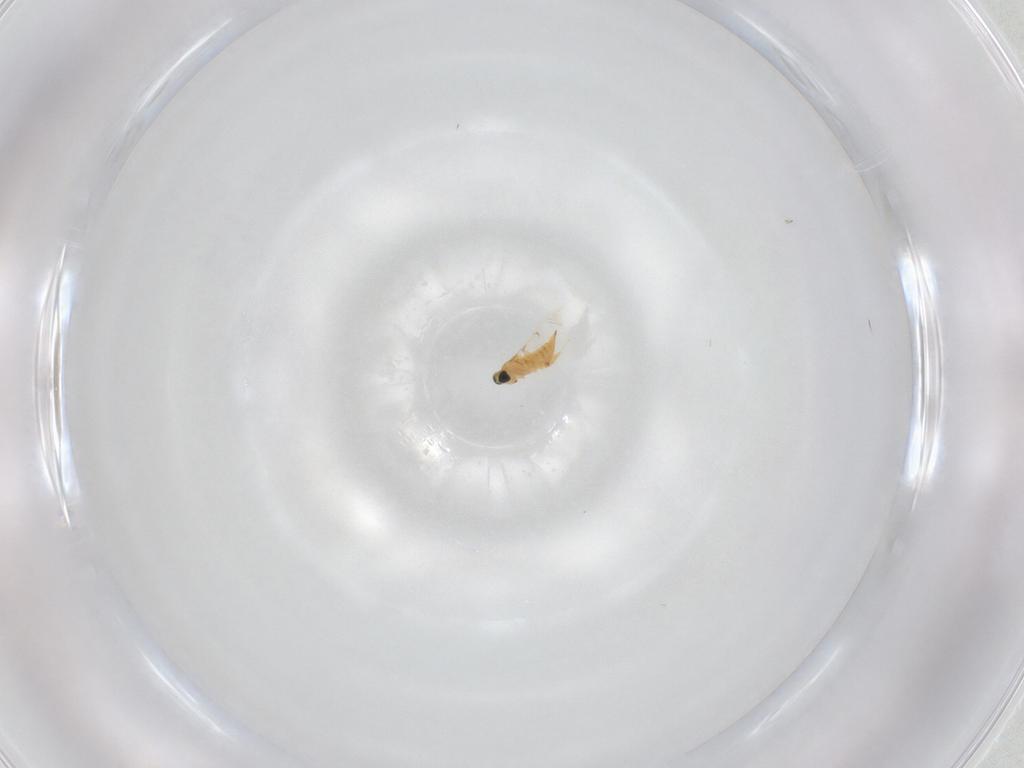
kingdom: Animalia
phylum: Arthropoda
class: Insecta
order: Hymenoptera
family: Trichogrammatidae
